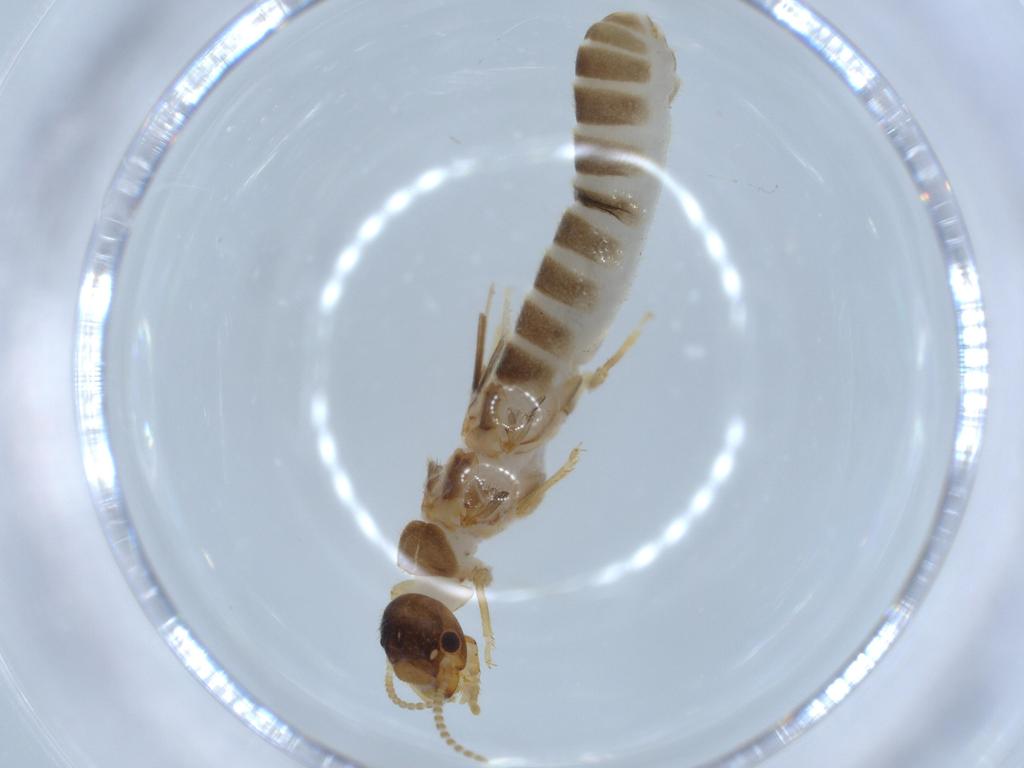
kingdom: Animalia
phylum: Arthropoda
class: Insecta
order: Blattodea
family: Termitidae
